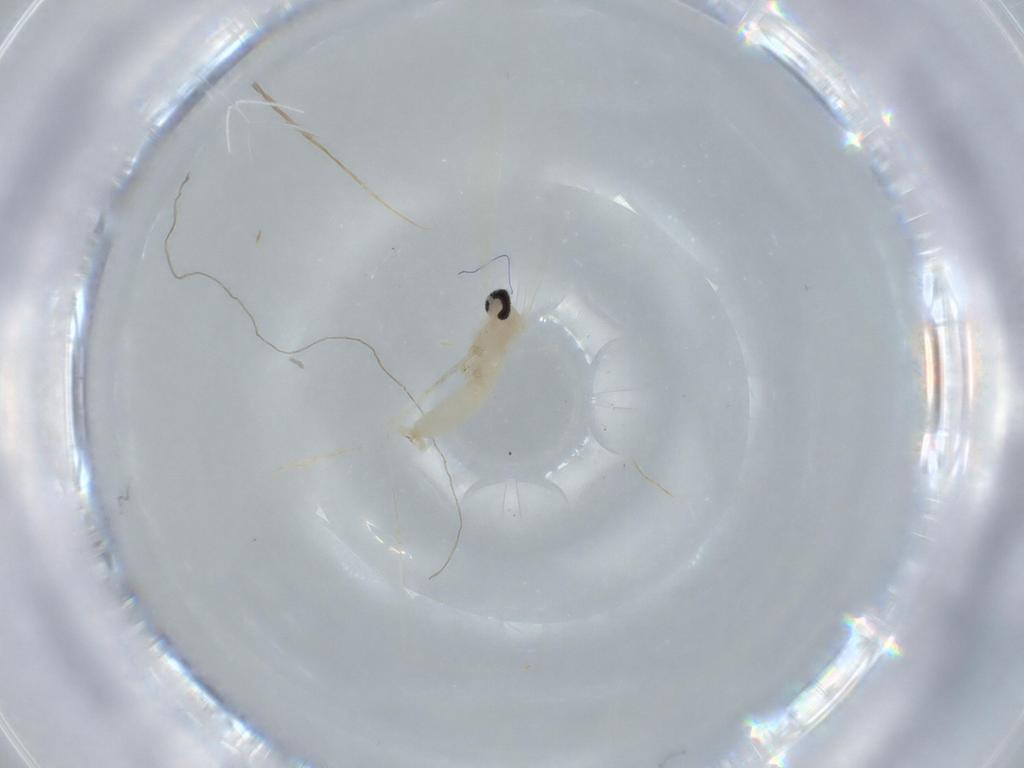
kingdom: Animalia
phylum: Arthropoda
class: Insecta
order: Diptera
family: Cecidomyiidae
